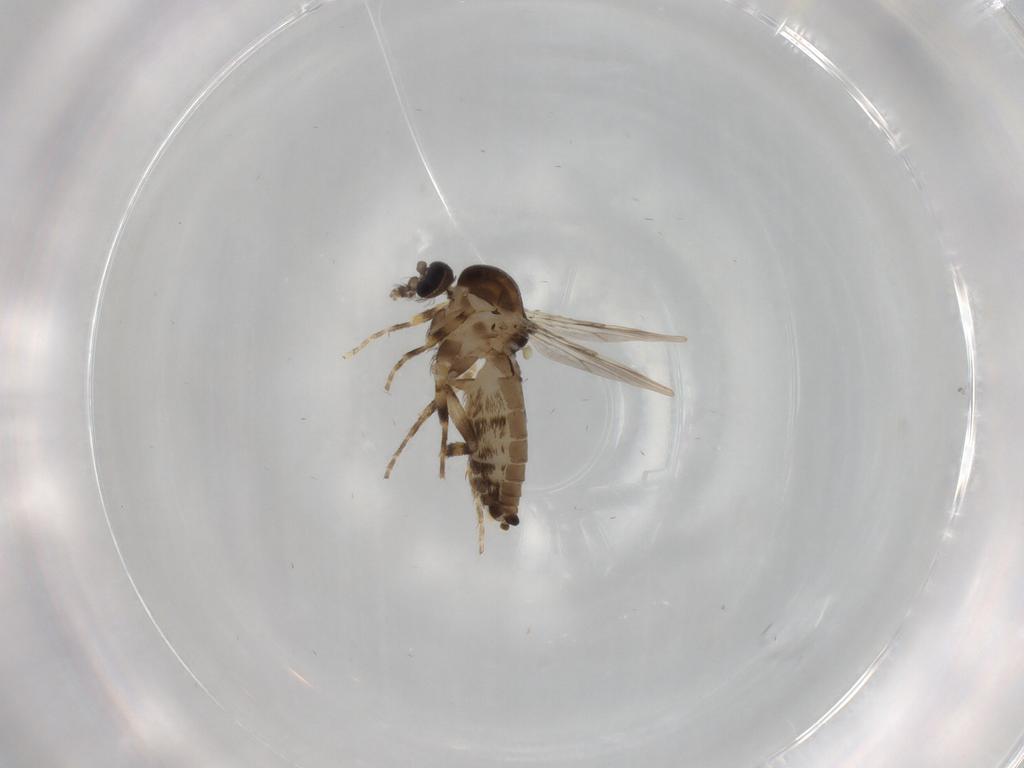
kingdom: Animalia
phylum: Arthropoda
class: Insecta
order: Diptera
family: Ceratopogonidae
